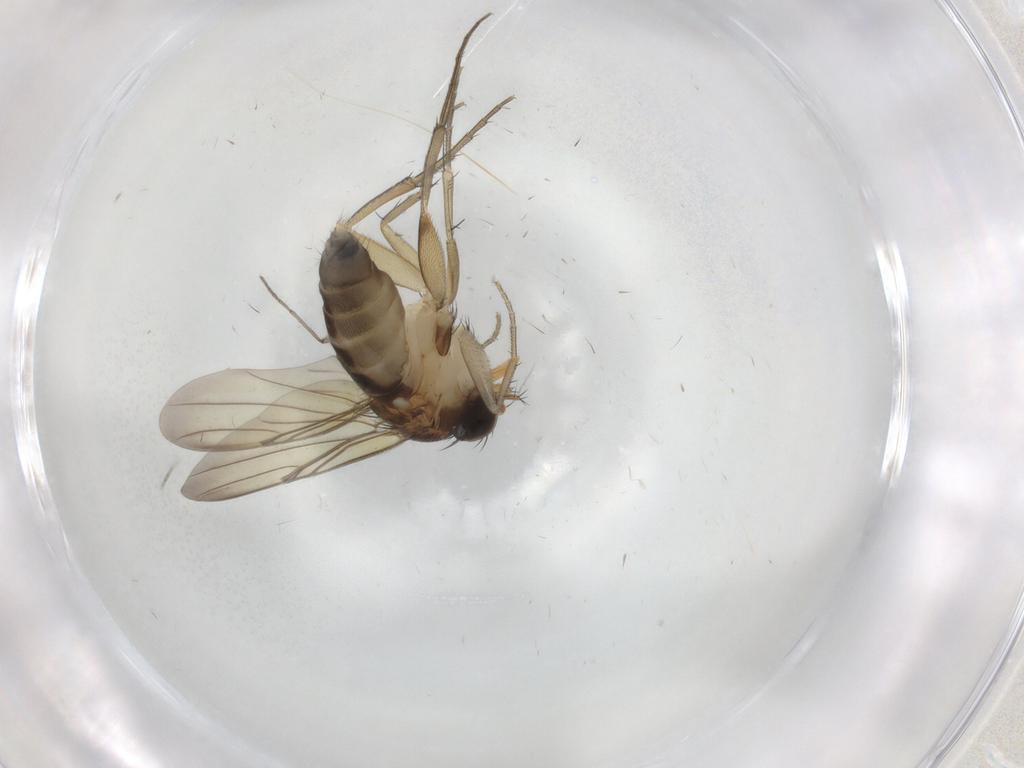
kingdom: Animalia
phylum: Arthropoda
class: Insecta
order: Diptera
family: Phoridae
